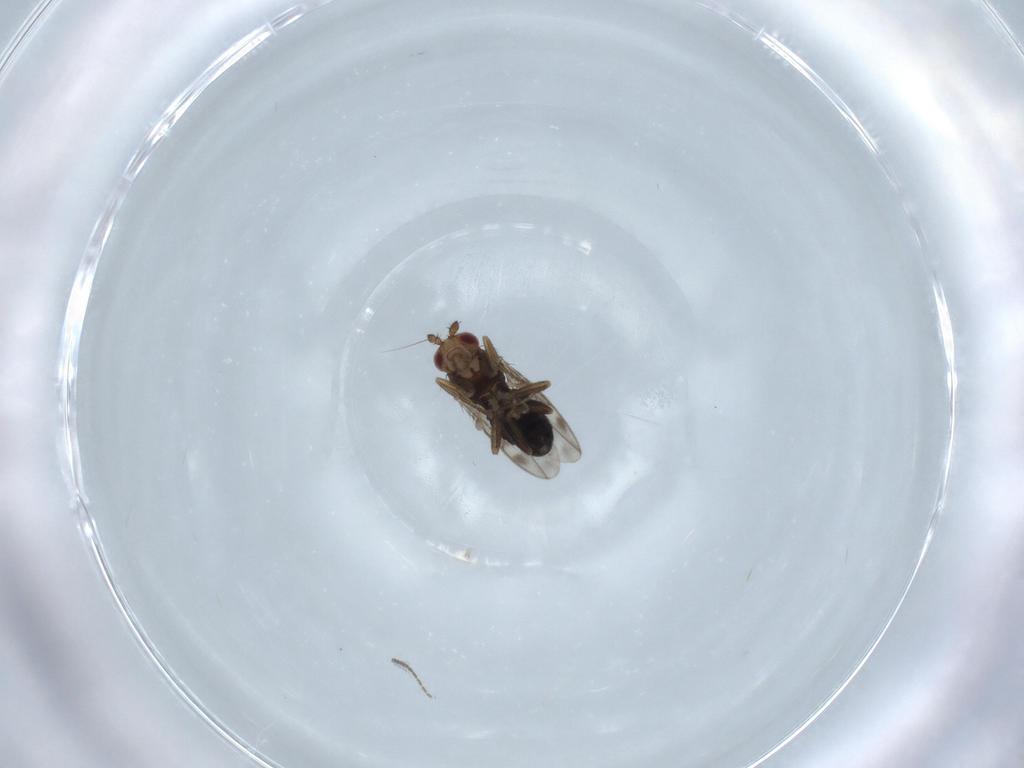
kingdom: Animalia
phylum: Arthropoda
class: Insecta
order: Diptera
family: Sphaeroceridae
